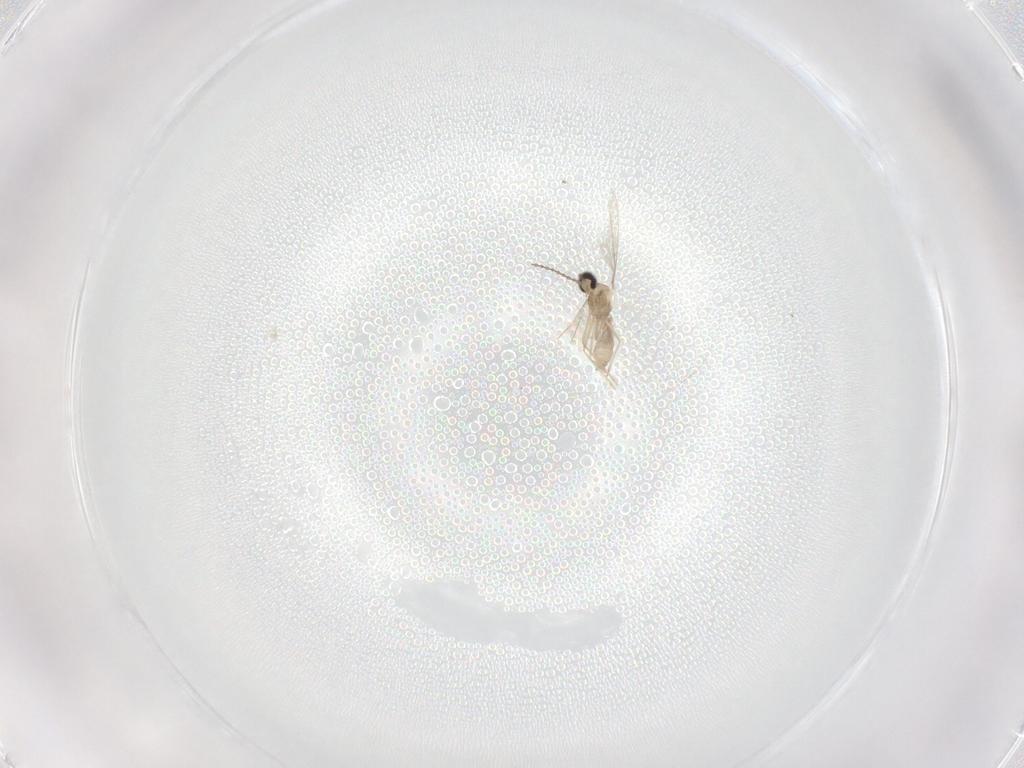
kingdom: Animalia
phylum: Arthropoda
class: Insecta
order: Diptera
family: Cecidomyiidae
